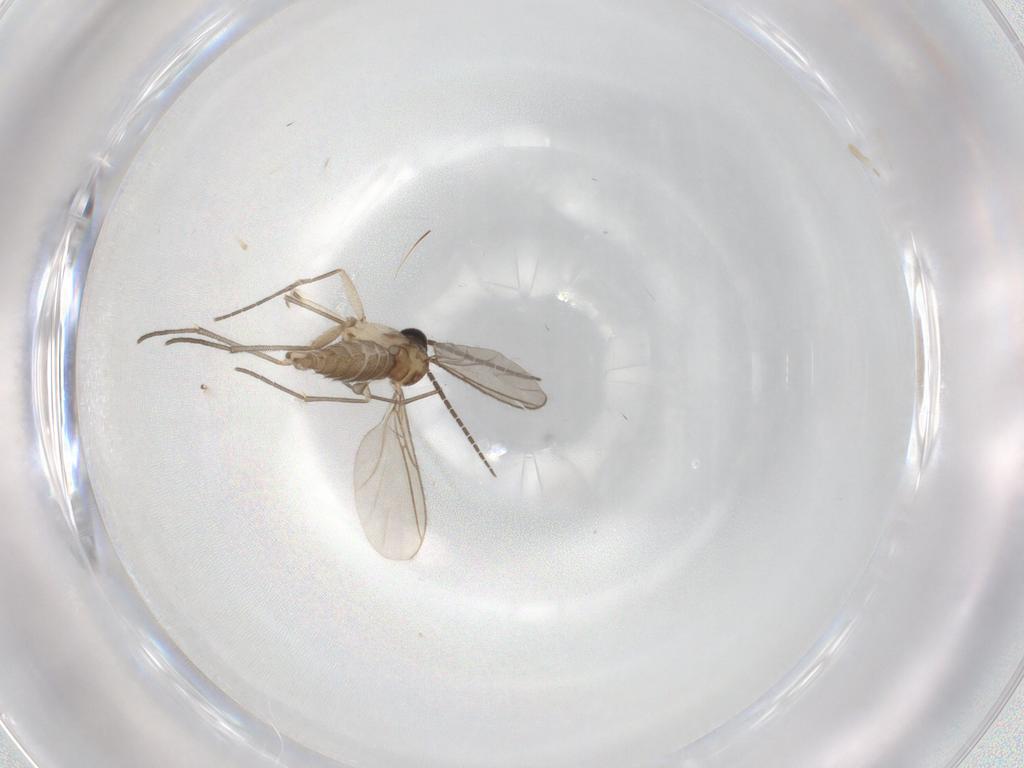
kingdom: Animalia
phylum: Arthropoda
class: Insecta
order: Diptera
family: Sciaridae
